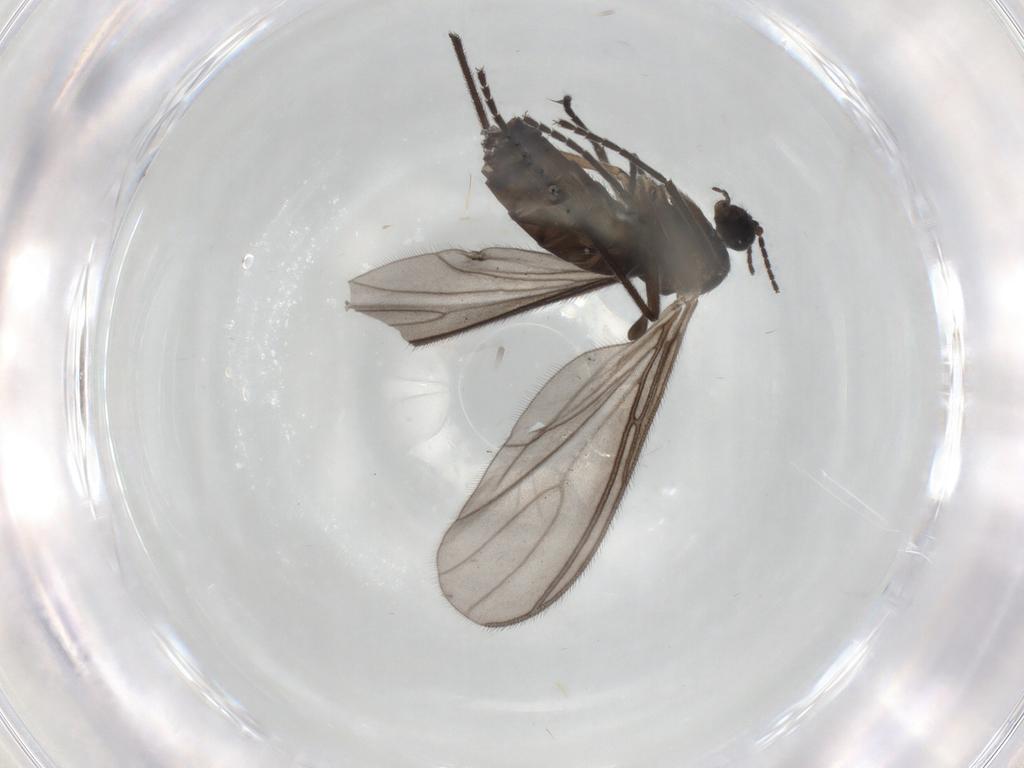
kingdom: Animalia
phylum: Arthropoda
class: Insecta
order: Diptera
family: Sciaridae
